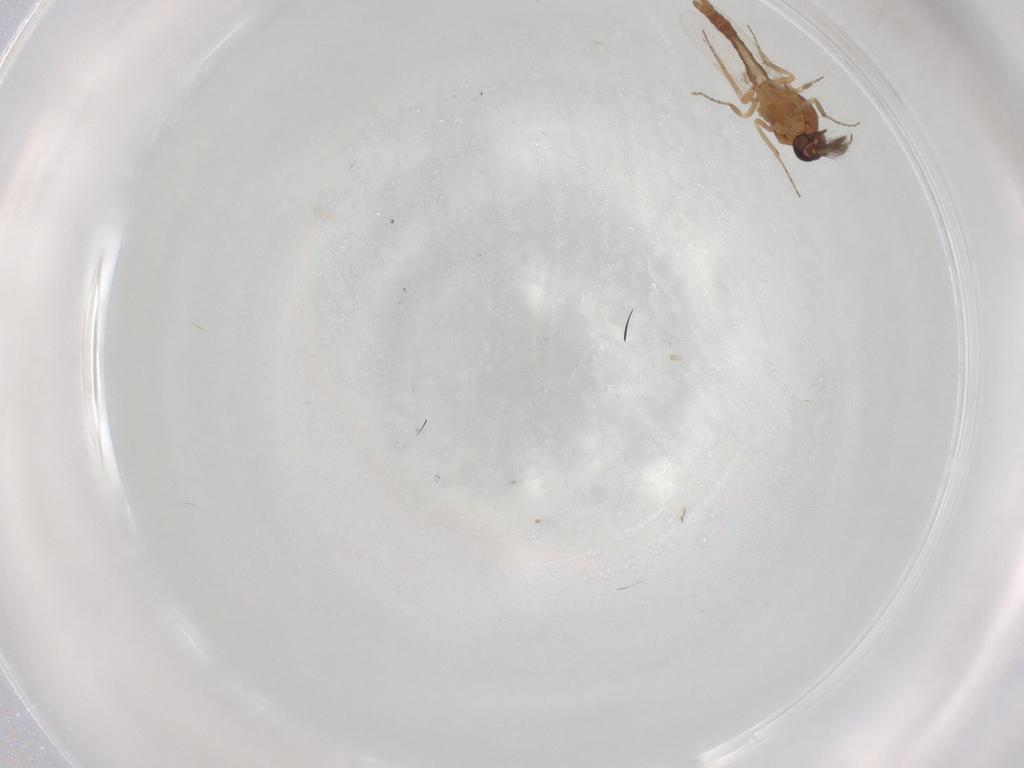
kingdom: Animalia
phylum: Arthropoda
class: Insecta
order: Diptera
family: Ceratopogonidae
